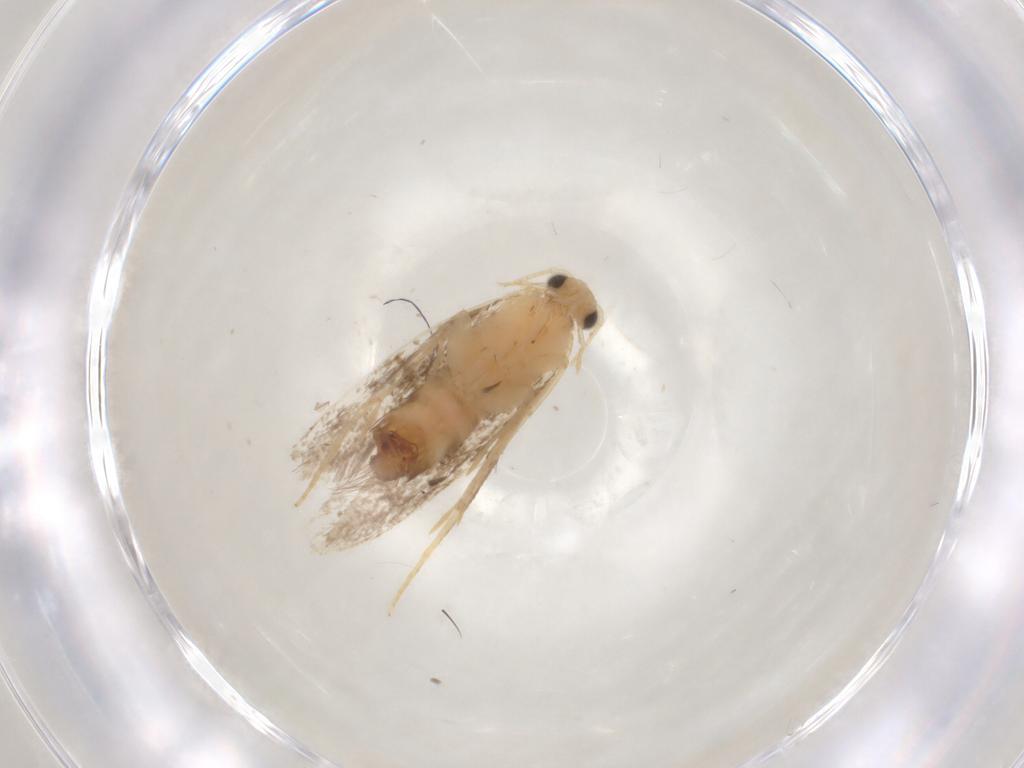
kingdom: Animalia
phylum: Arthropoda
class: Insecta
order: Lepidoptera
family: Dryadaulidae
